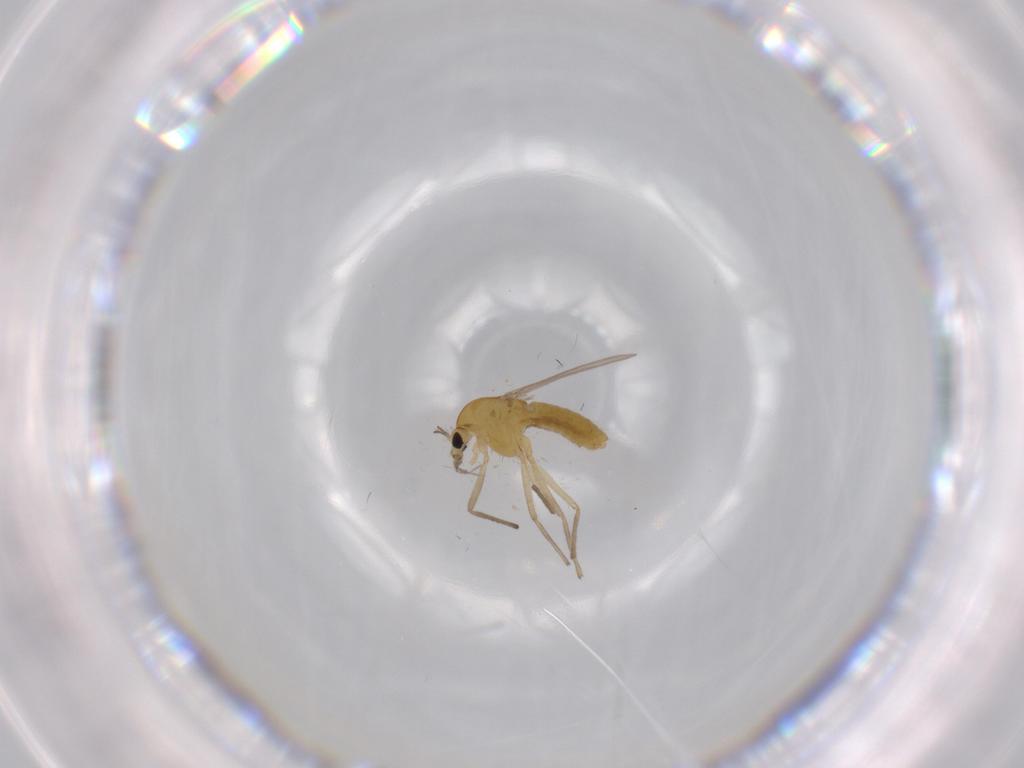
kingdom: Animalia
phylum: Arthropoda
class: Insecta
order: Diptera
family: Chironomidae
